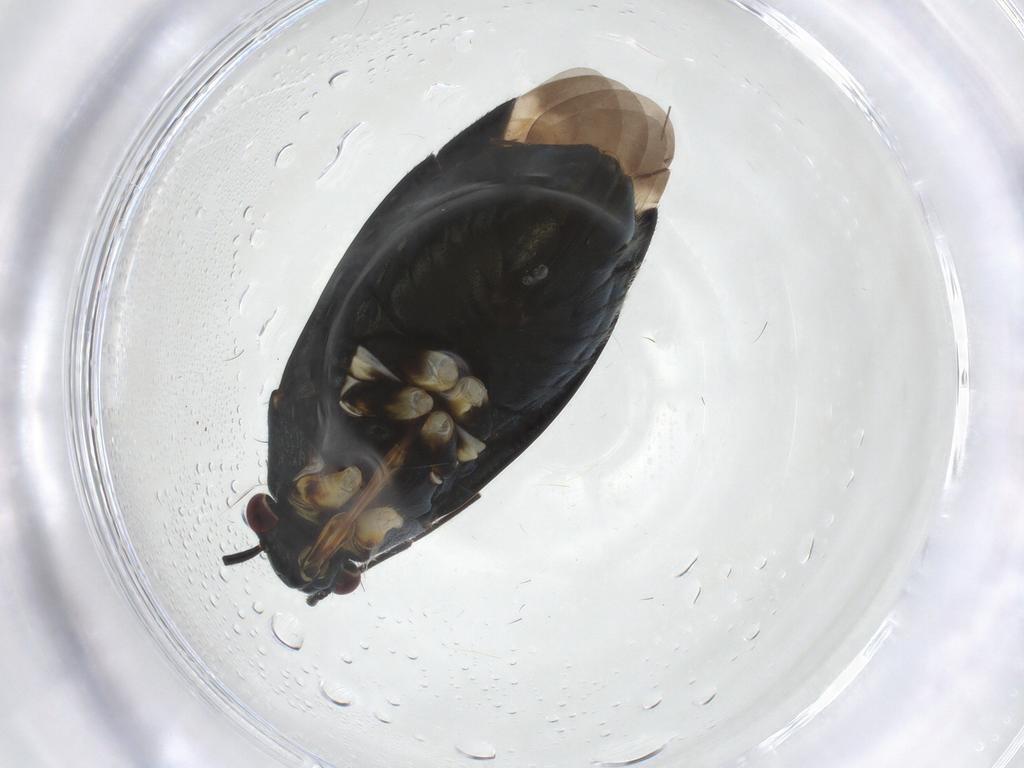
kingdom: Animalia
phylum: Arthropoda
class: Insecta
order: Hemiptera
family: Miridae
